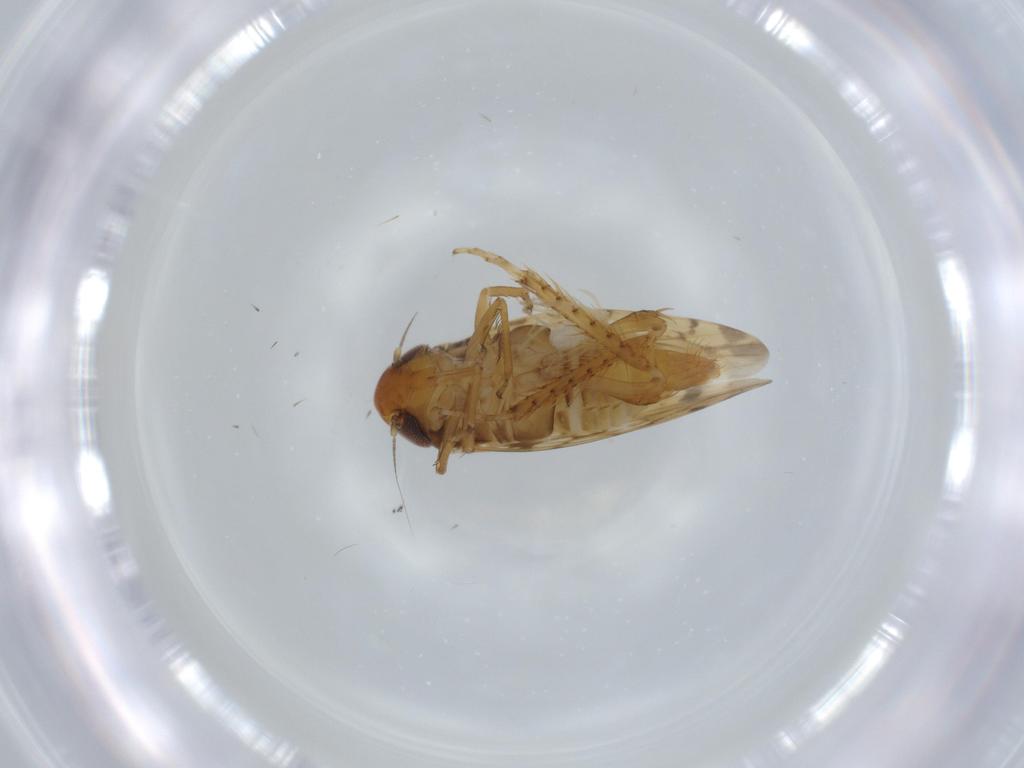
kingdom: Animalia
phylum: Arthropoda
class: Insecta
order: Hemiptera
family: Cicadellidae
